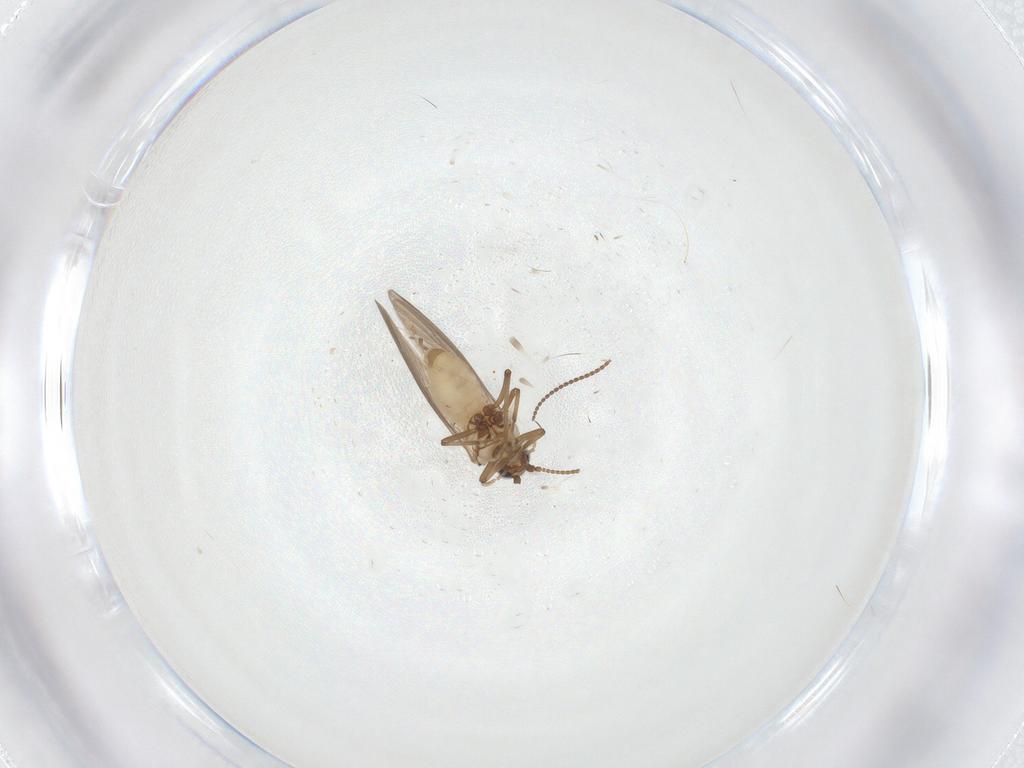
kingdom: Animalia
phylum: Arthropoda
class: Insecta
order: Neuroptera
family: Coniopterygidae
